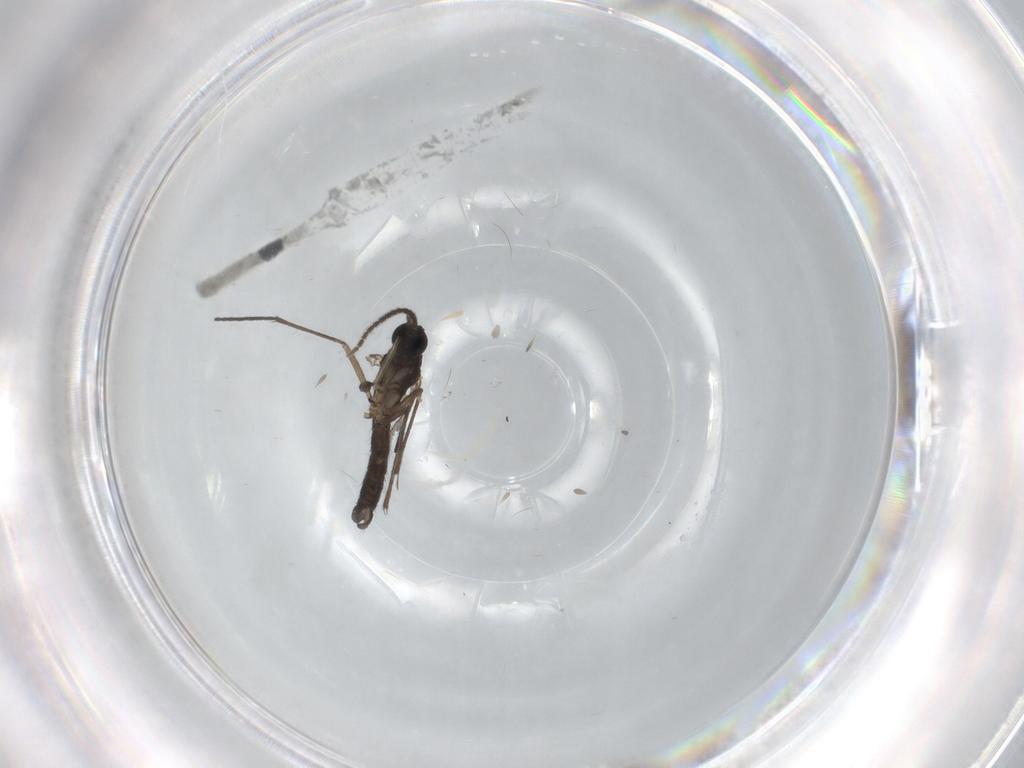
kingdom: Animalia
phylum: Arthropoda
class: Insecta
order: Diptera
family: Sciaridae
